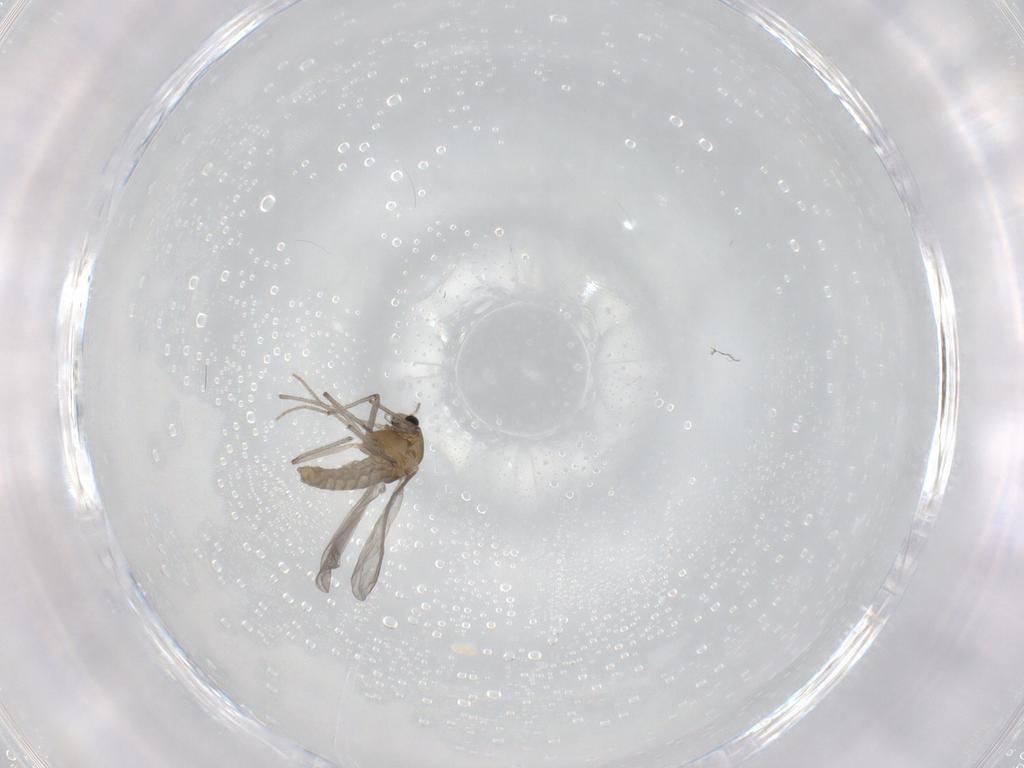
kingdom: Animalia
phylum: Arthropoda
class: Insecta
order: Diptera
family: Chironomidae
